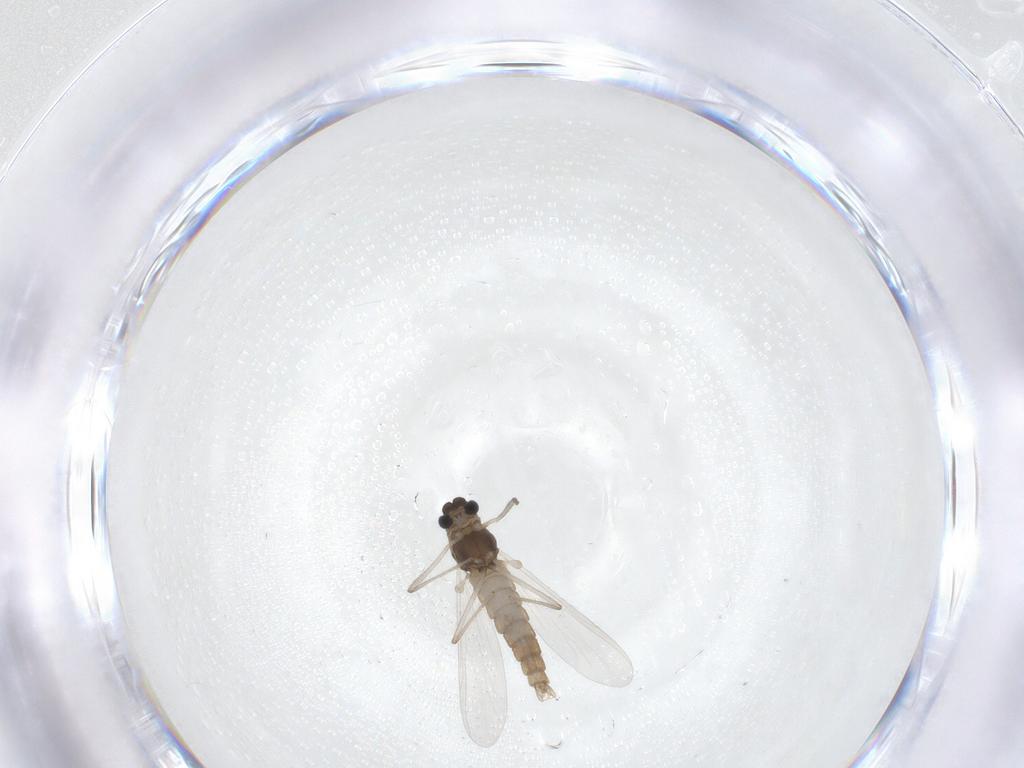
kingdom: Animalia
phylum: Arthropoda
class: Insecta
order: Diptera
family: Chironomidae
